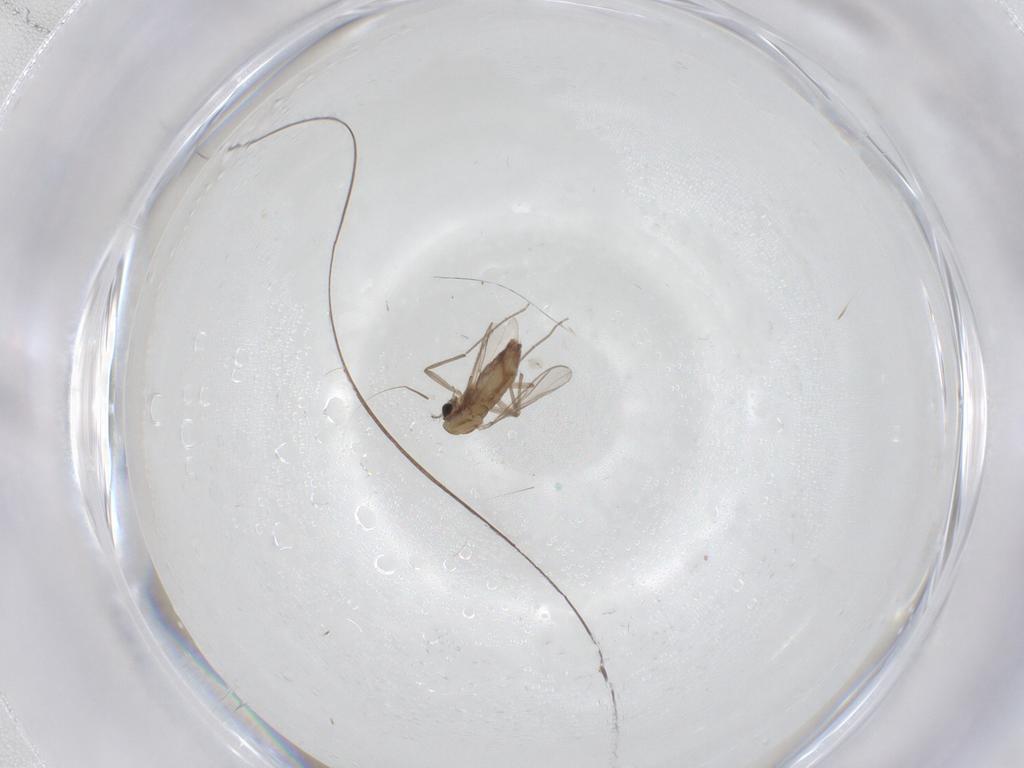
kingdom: Animalia
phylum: Arthropoda
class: Insecta
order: Diptera
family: Chironomidae
